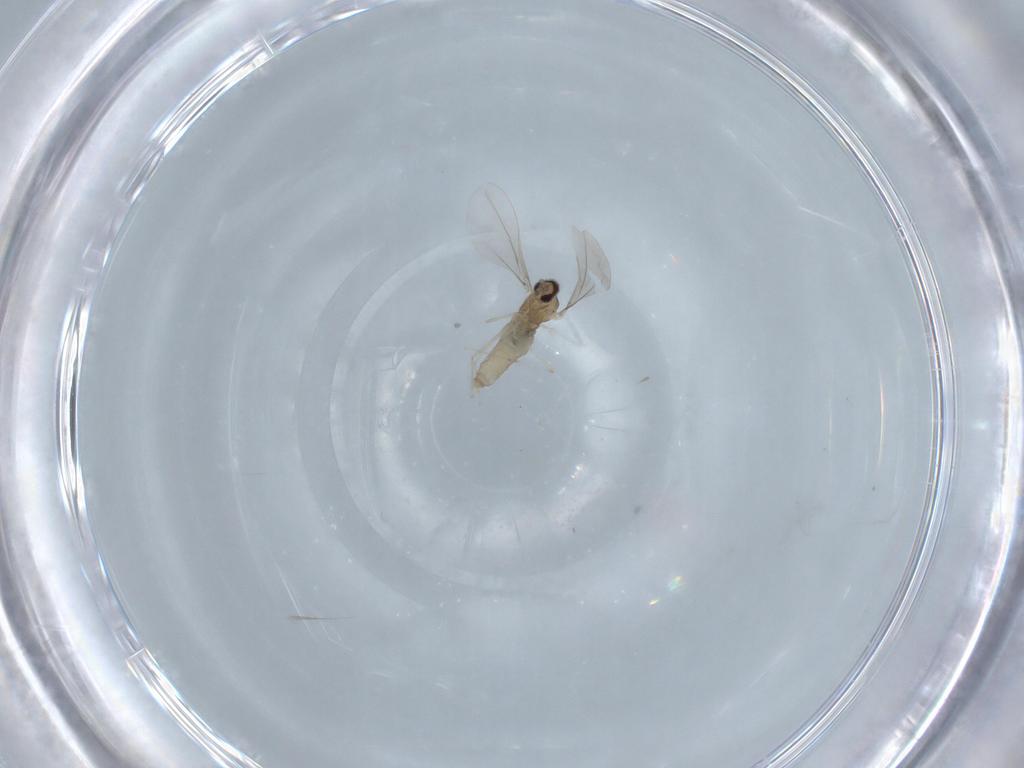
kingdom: Animalia
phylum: Arthropoda
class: Insecta
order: Diptera
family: Cecidomyiidae
